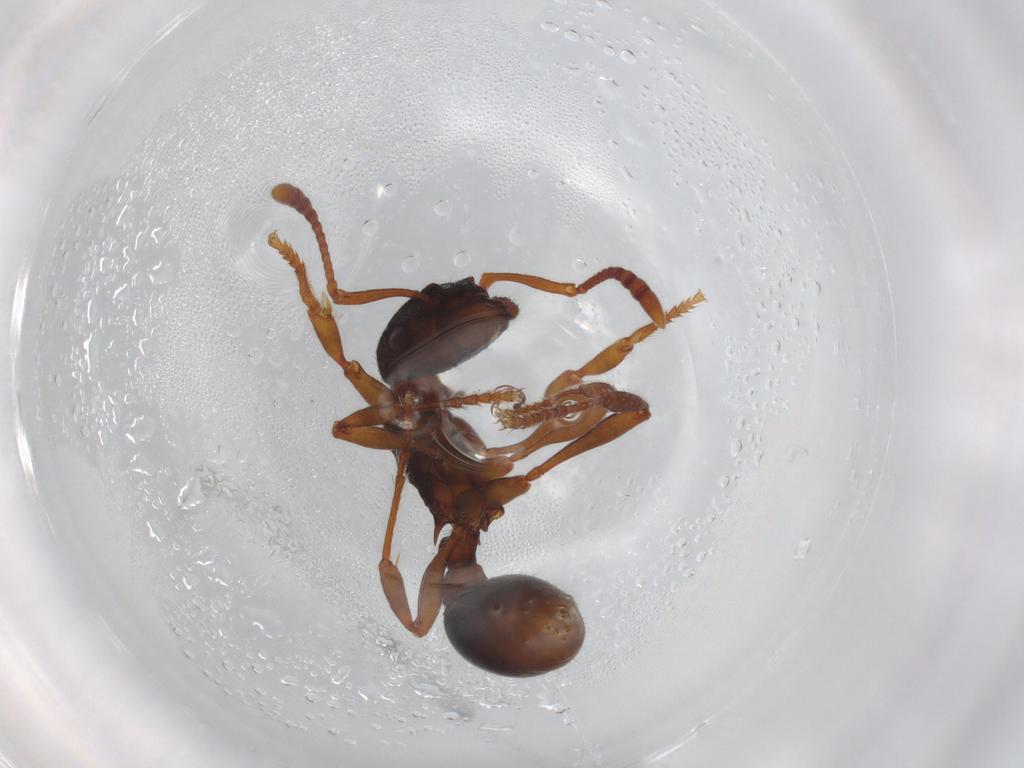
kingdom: Animalia
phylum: Arthropoda
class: Insecta
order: Hymenoptera
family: Formicidae
